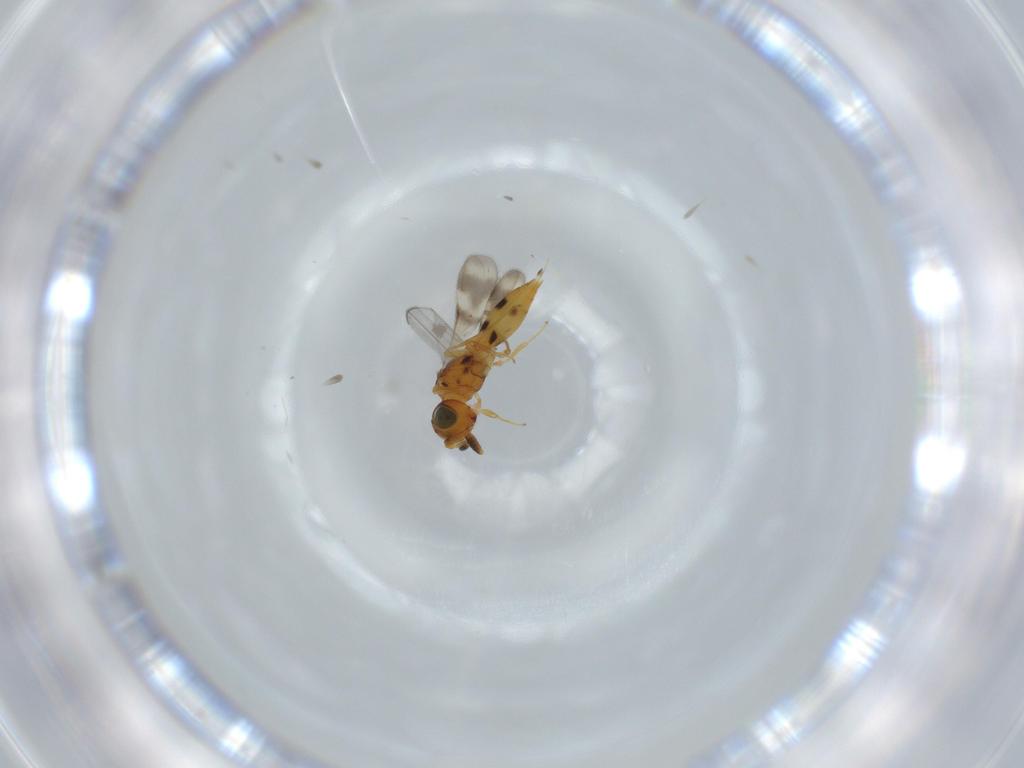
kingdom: Animalia
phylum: Arthropoda
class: Insecta
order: Hymenoptera
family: Scelionidae
